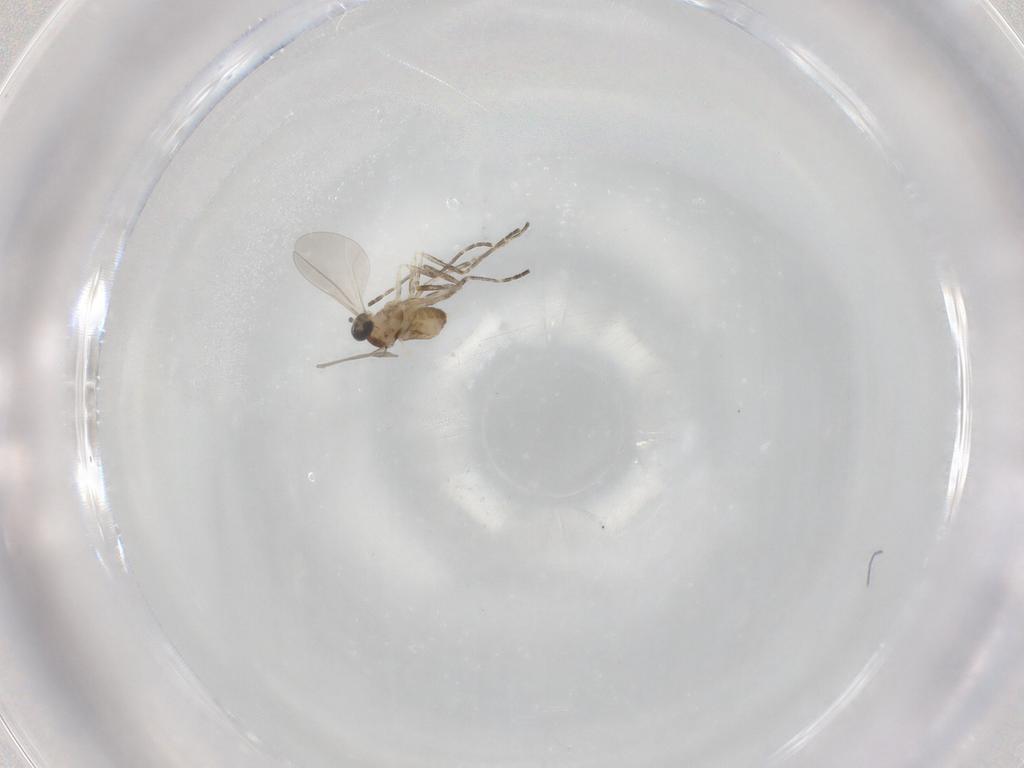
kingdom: Animalia
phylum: Arthropoda
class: Insecta
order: Diptera
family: Cecidomyiidae
